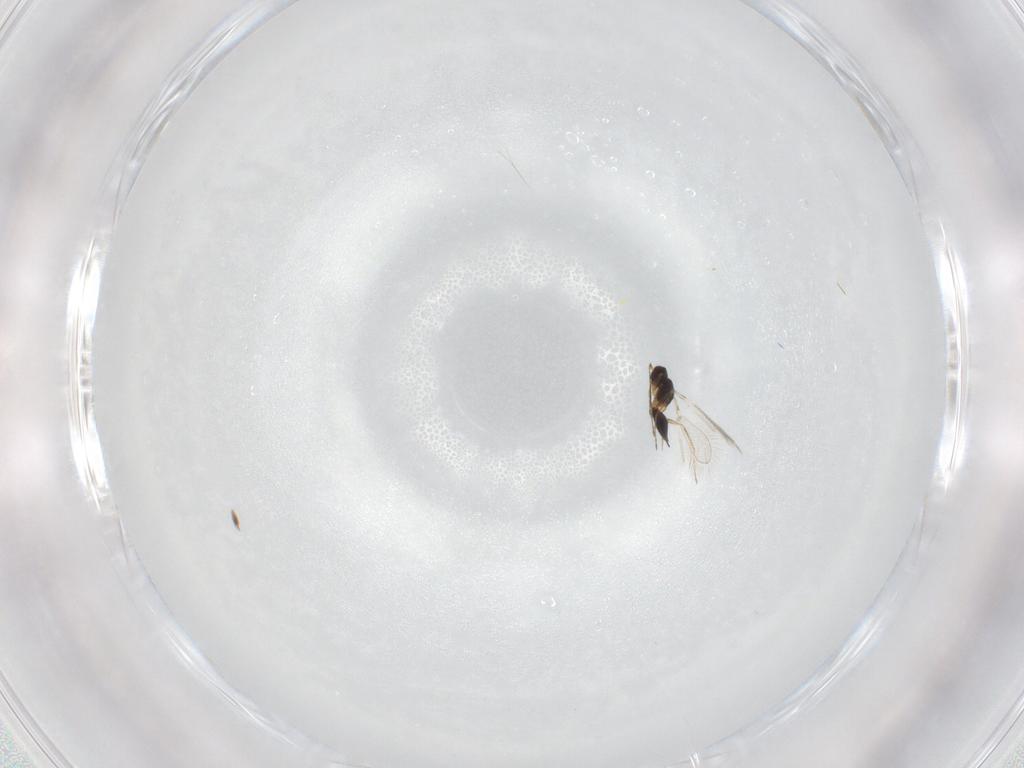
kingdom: Animalia
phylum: Arthropoda
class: Insecta
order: Hymenoptera
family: Mymaridae
